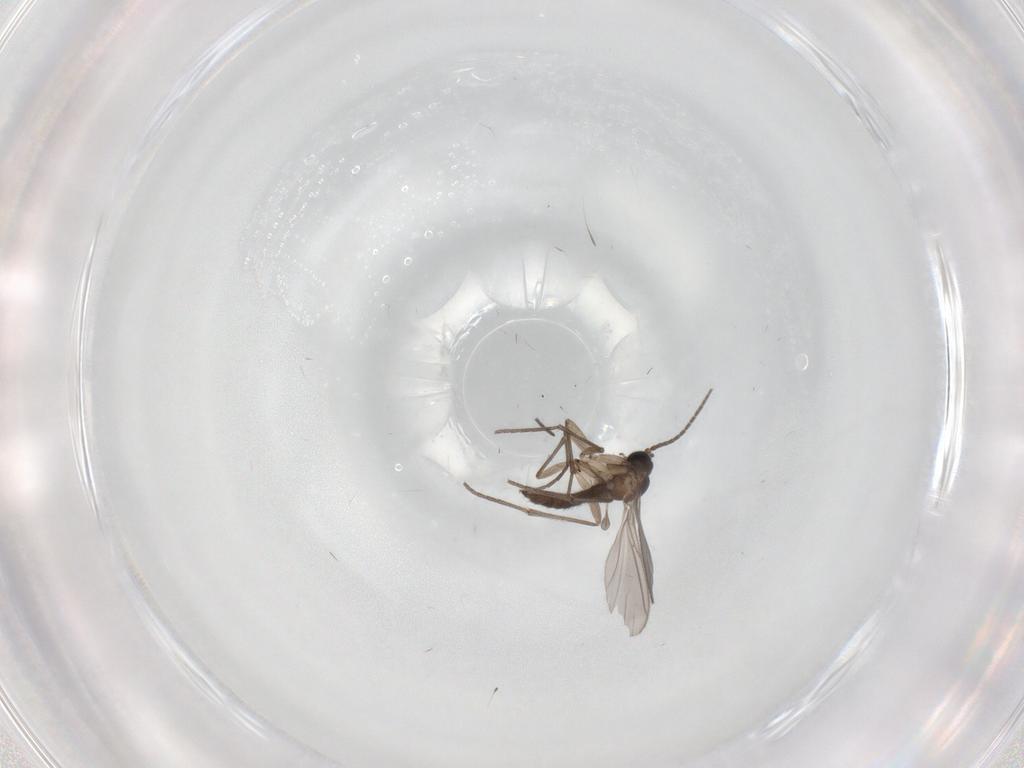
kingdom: Animalia
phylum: Arthropoda
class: Insecta
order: Diptera
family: Sciaridae
